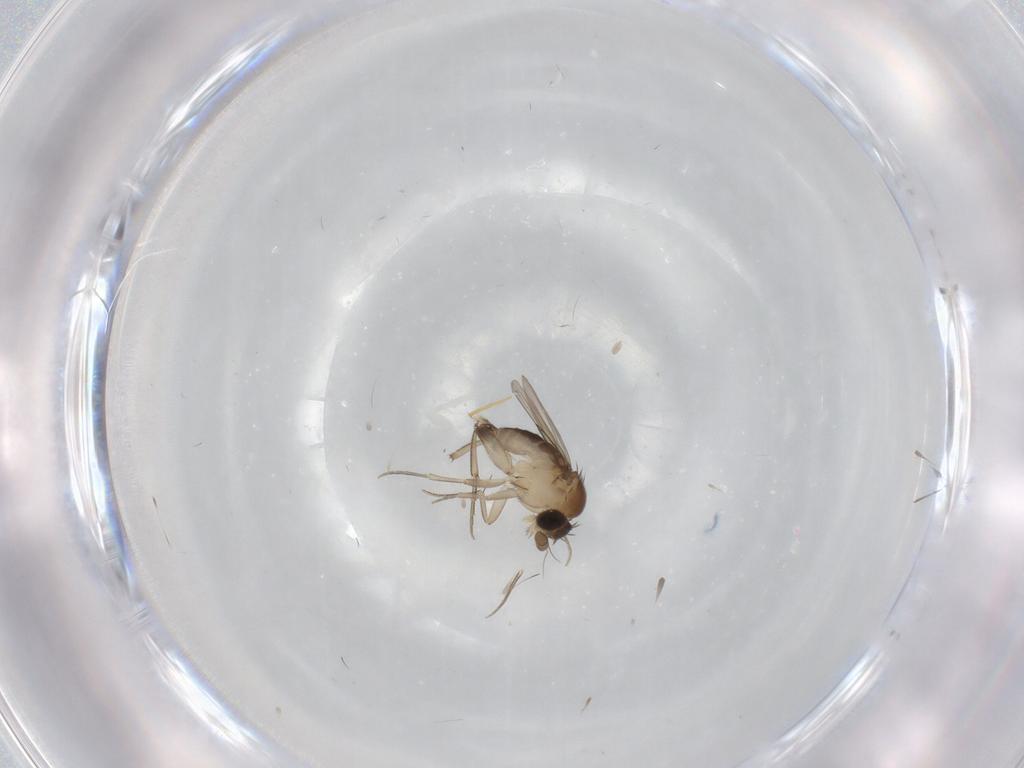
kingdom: Animalia
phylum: Arthropoda
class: Insecta
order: Diptera
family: Phoridae
